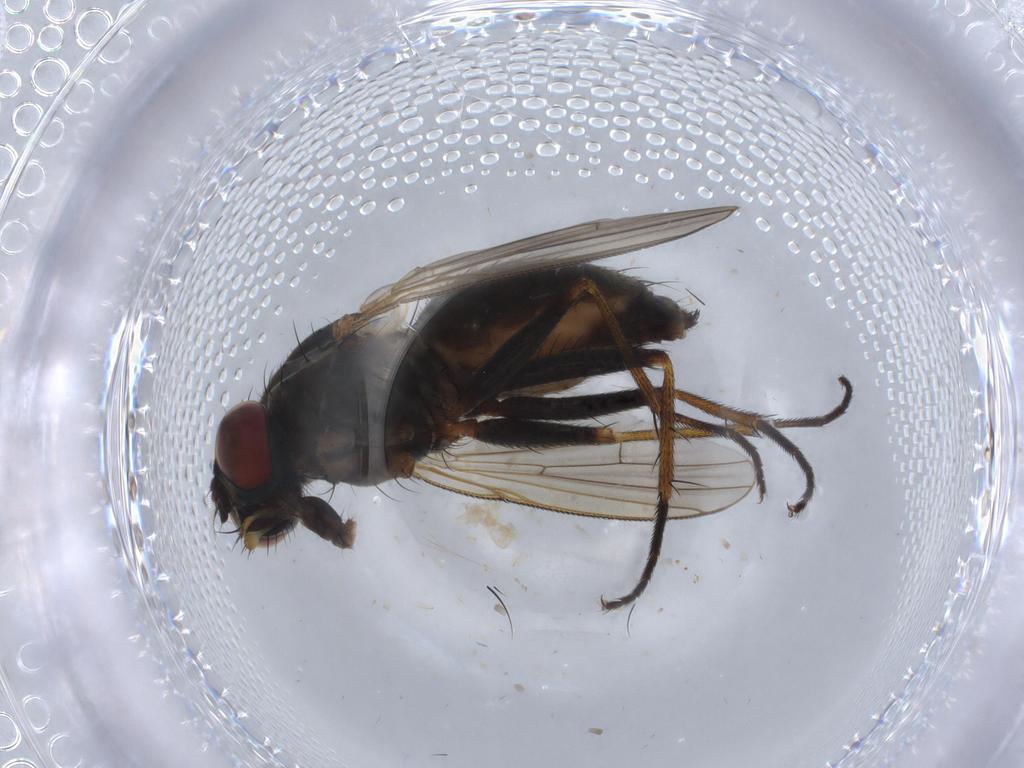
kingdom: Animalia
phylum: Arthropoda
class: Insecta
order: Diptera
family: Muscidae
